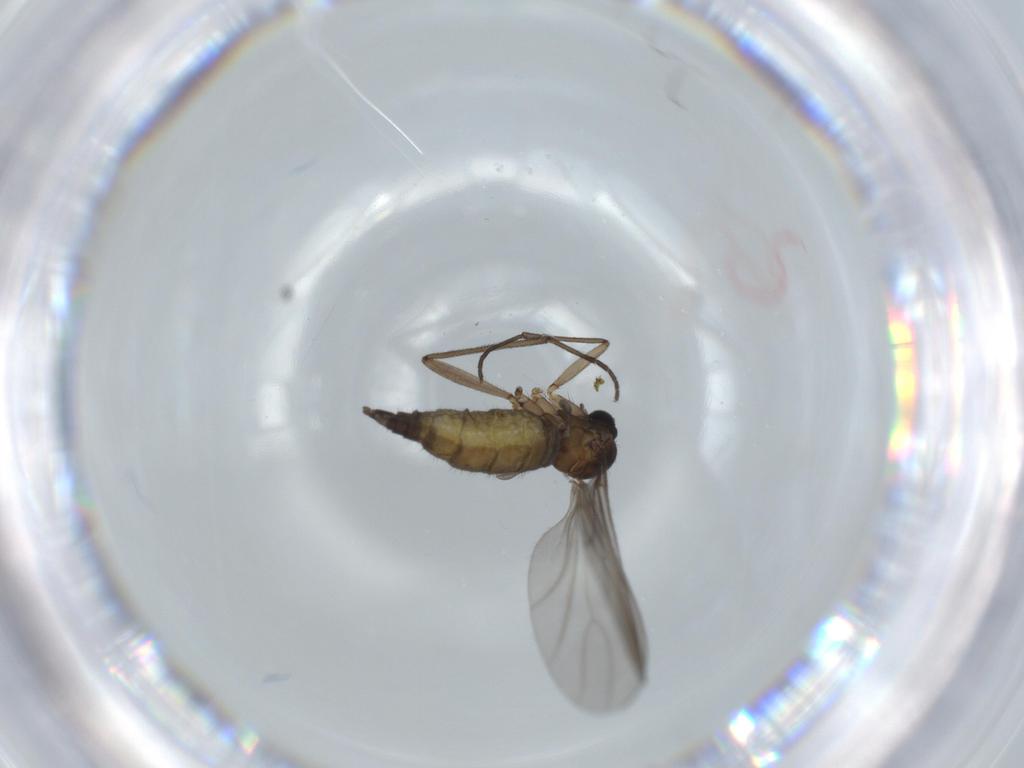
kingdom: Animalia
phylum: Arthropoda
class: Insecta
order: Diptera
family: Sciaridae
